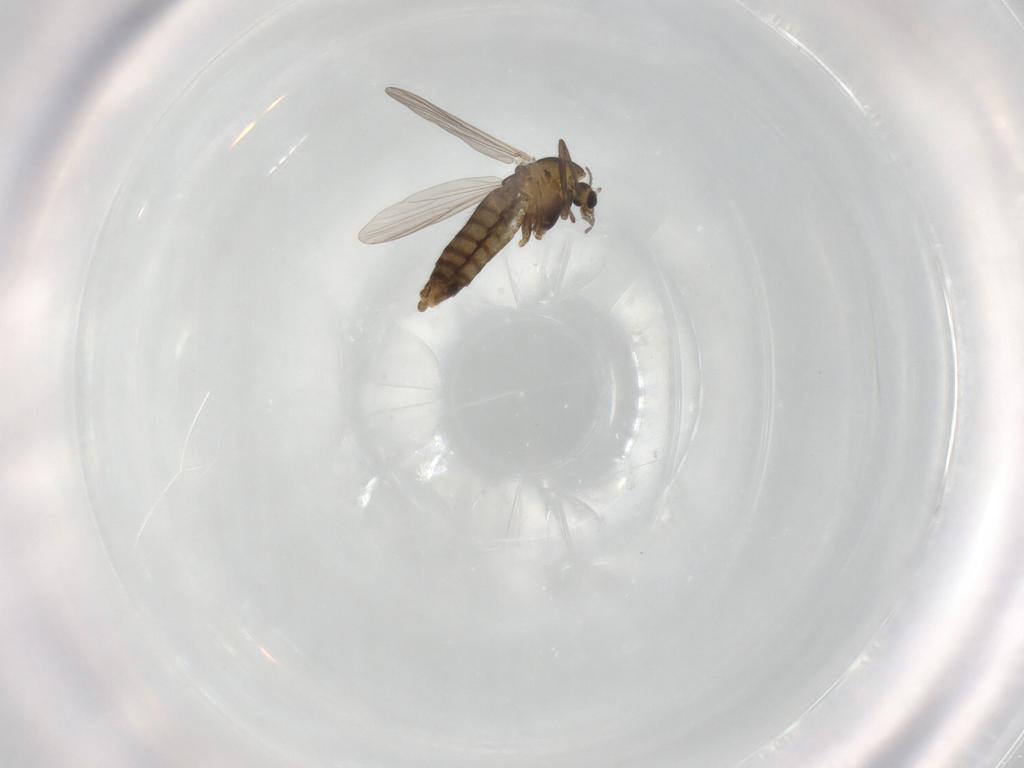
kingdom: Animalia
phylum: Arthropoda
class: Insecta
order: Diptera
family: Chironomidae
